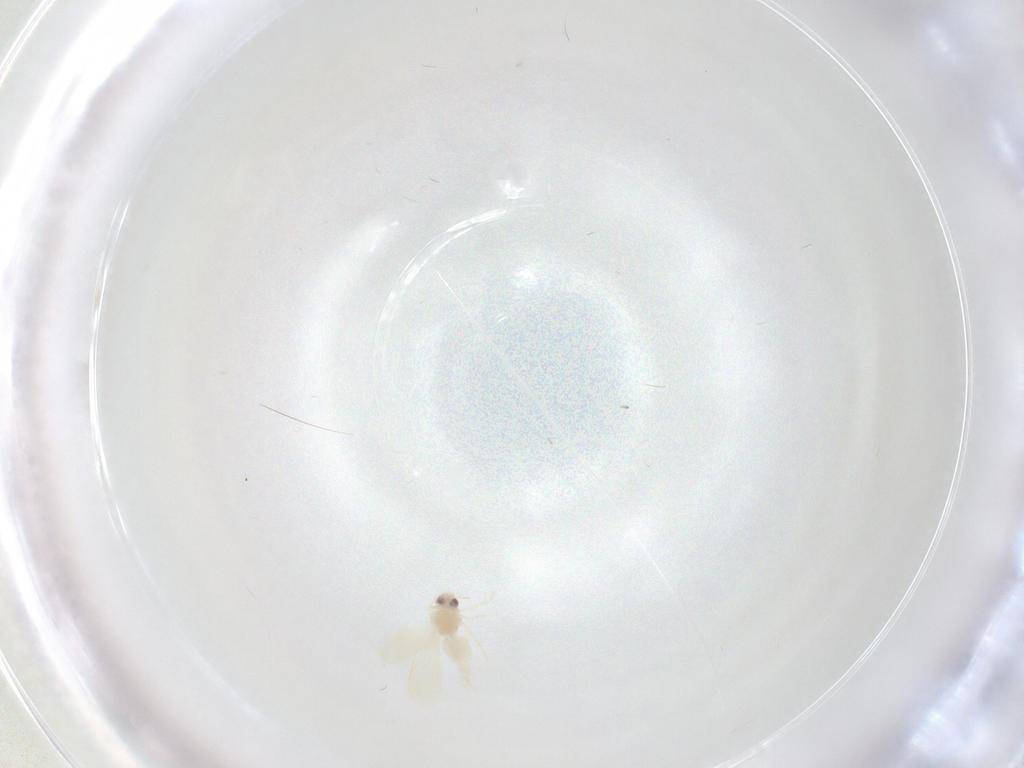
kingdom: Animalia
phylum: Arthropoda
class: Insecta
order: Hemiptera
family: Aleyrodidae
